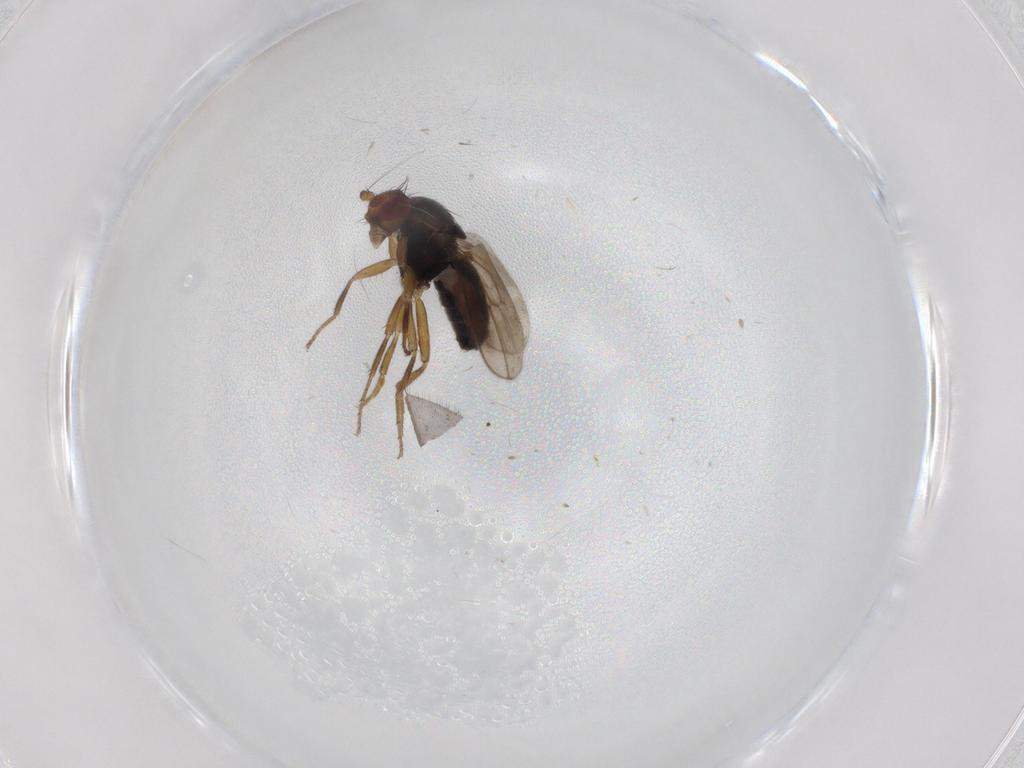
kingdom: Animalia
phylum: Arthropoda
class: Insecta
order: Diptera
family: Sphaeroceridae
